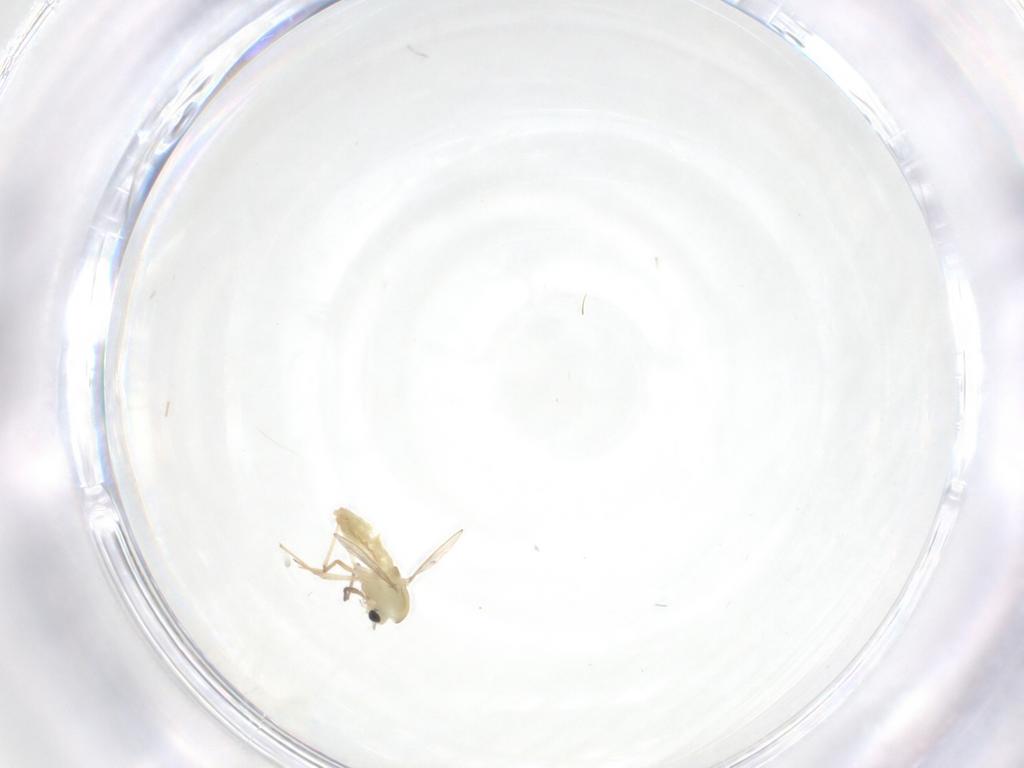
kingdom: Animalia
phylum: Arthropoda
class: Insecta
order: Diptera
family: Chironomidae
